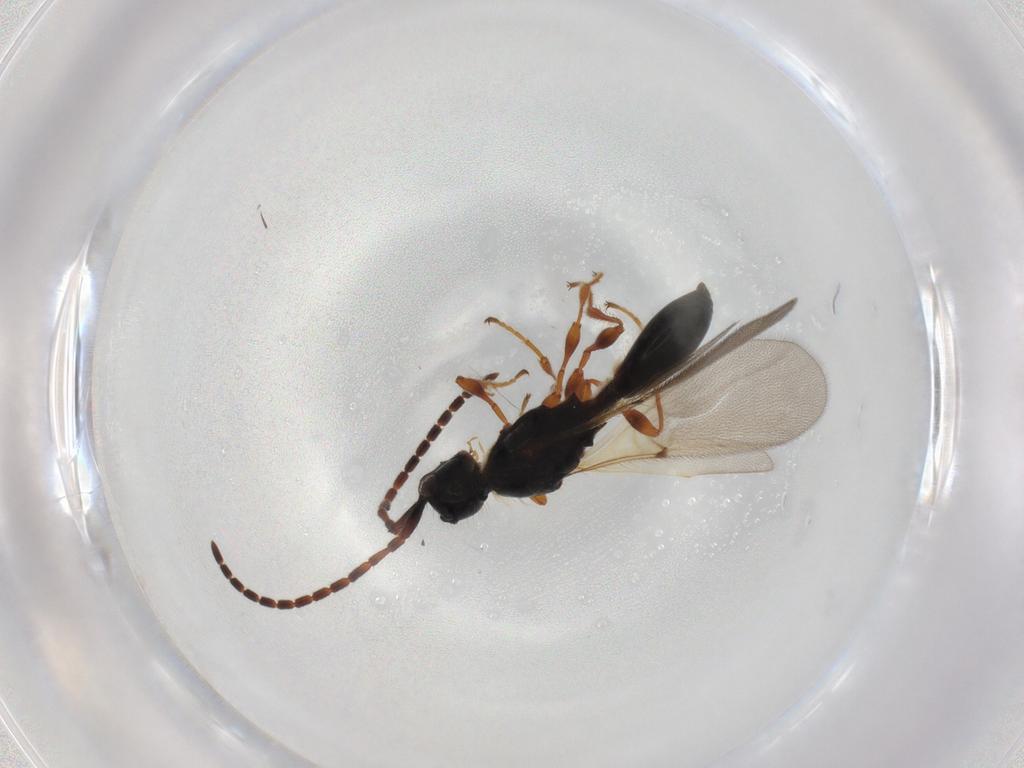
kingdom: Animalia
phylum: Arthropoda
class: Insecta
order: Hymenoptera
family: Diapriidae
